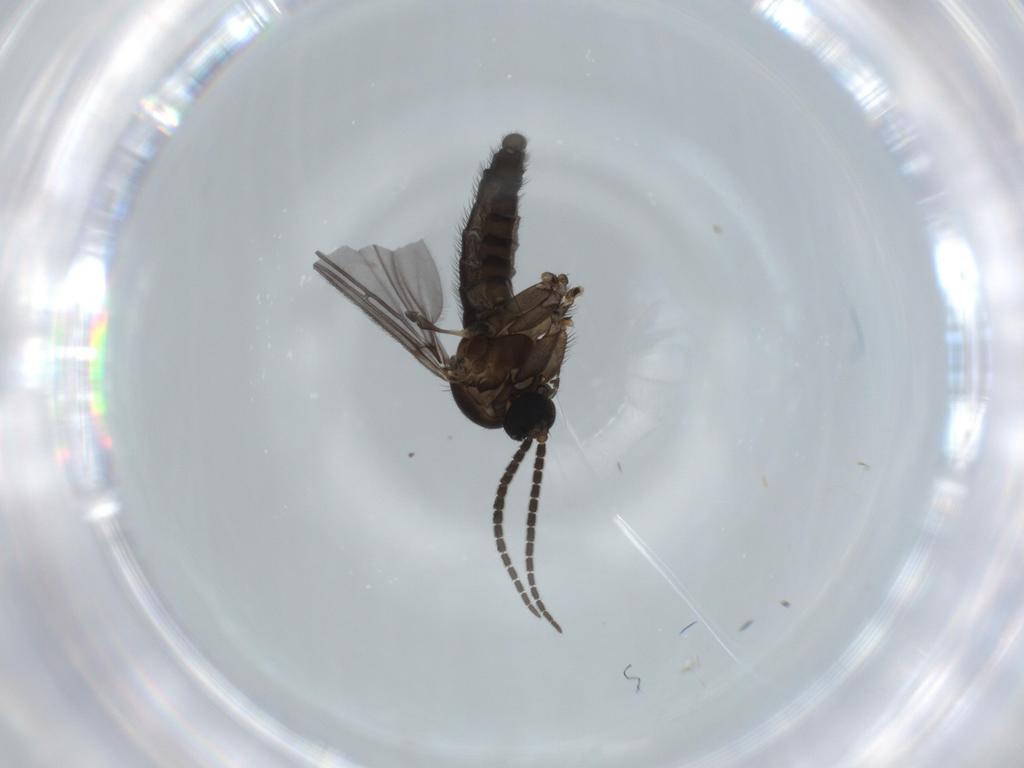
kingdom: Animalia
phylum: Arthropoda
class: Insecta
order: Diptera
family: Sciaridae
